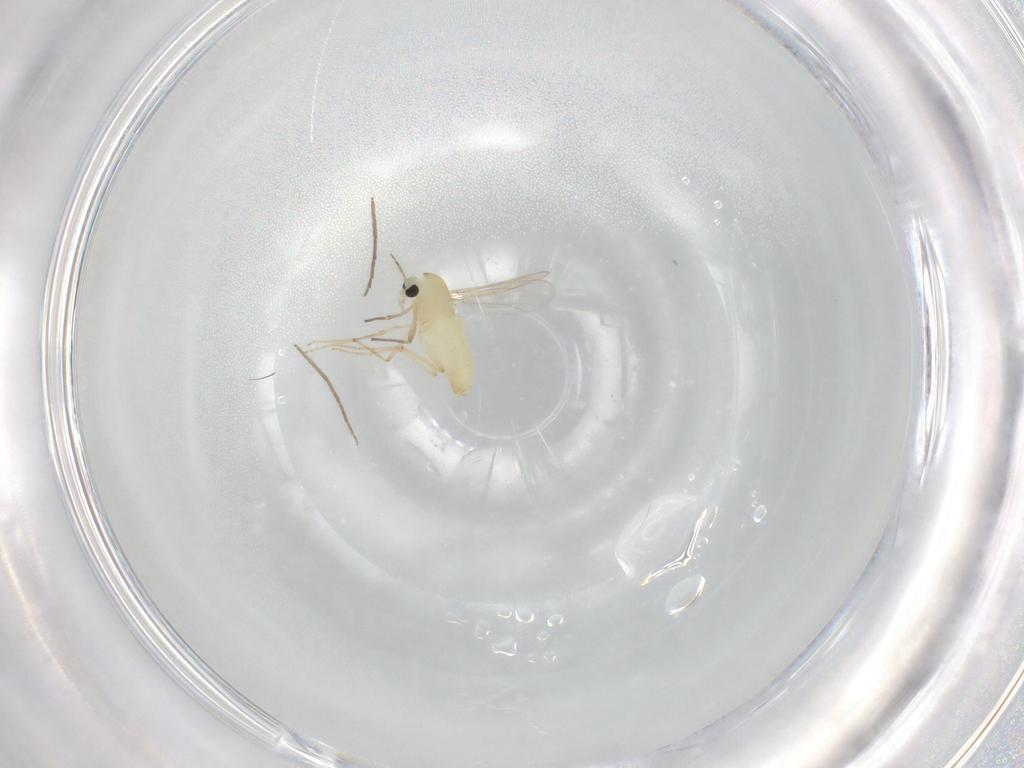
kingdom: Animalia
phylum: Arthropoda
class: Insecta
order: Diptera
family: Chironomidae
